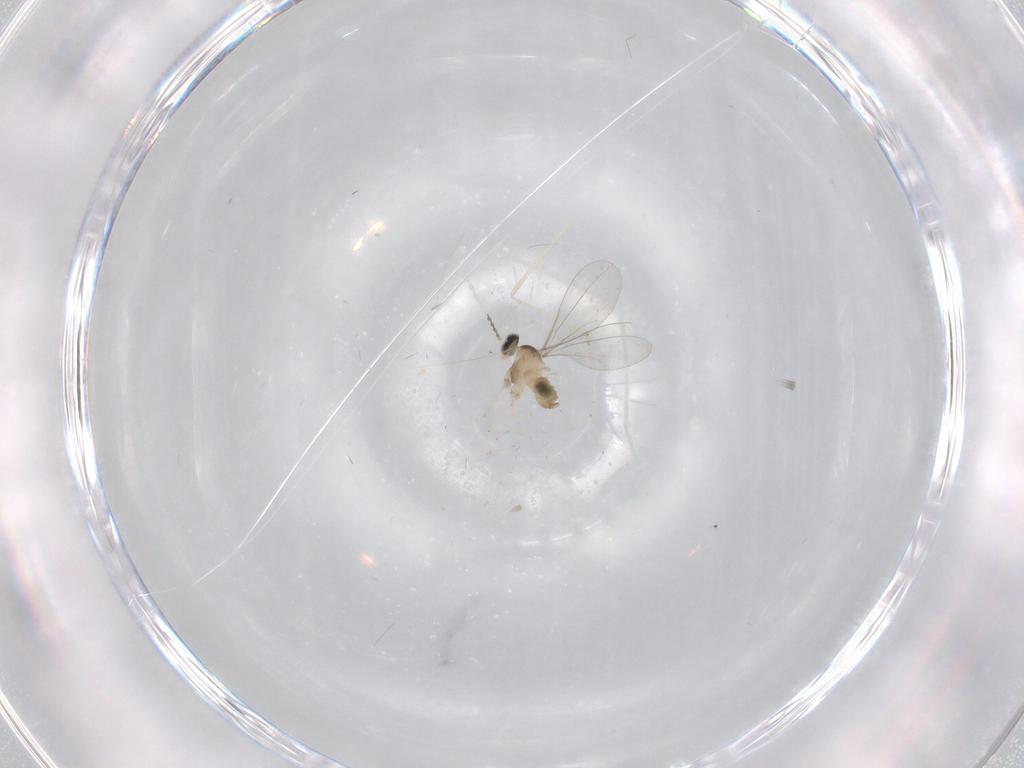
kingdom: Animalia
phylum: Arthropoda
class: Insecta
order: Diptera
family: Cecidomyiidae
